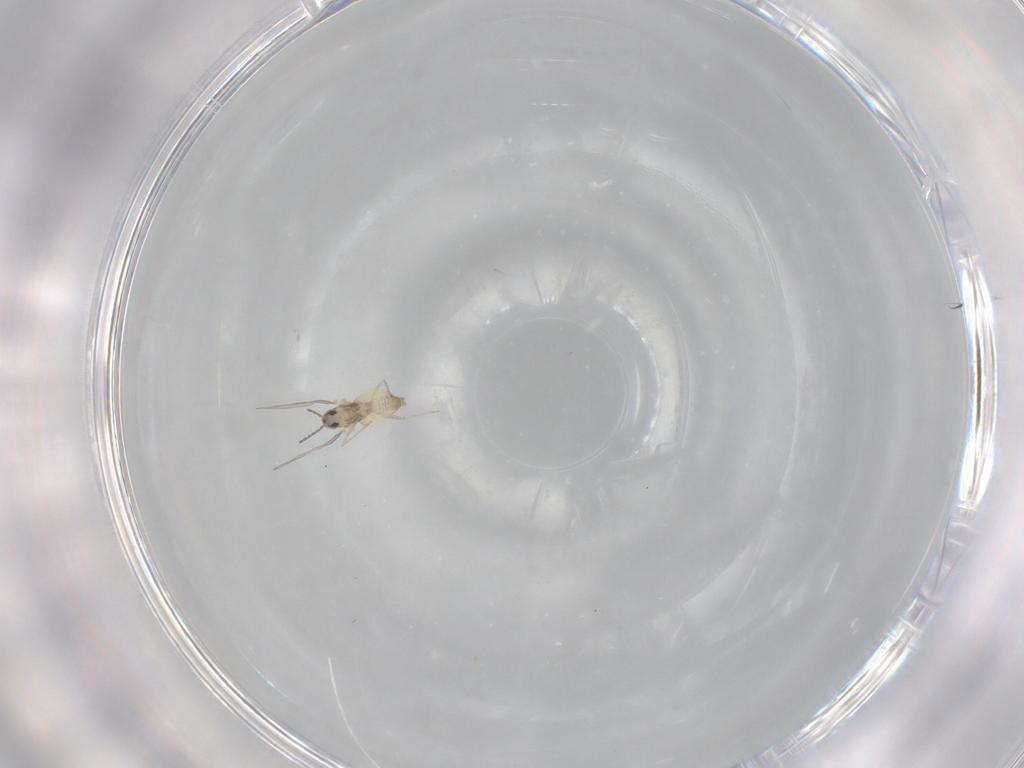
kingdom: Animalia
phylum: Arthropoda
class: Insecta
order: Diptera
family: Cecidomyiidae
